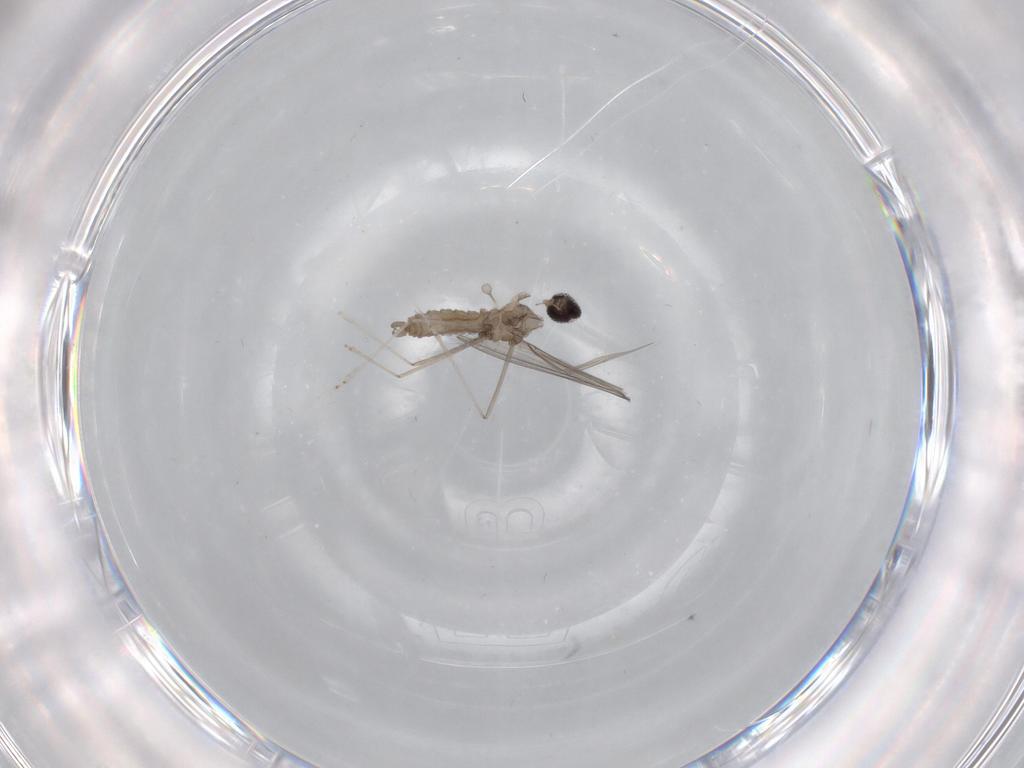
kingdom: Animalia
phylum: Arthropoda
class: Insecta
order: Diptera
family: Cecidomyiidae
